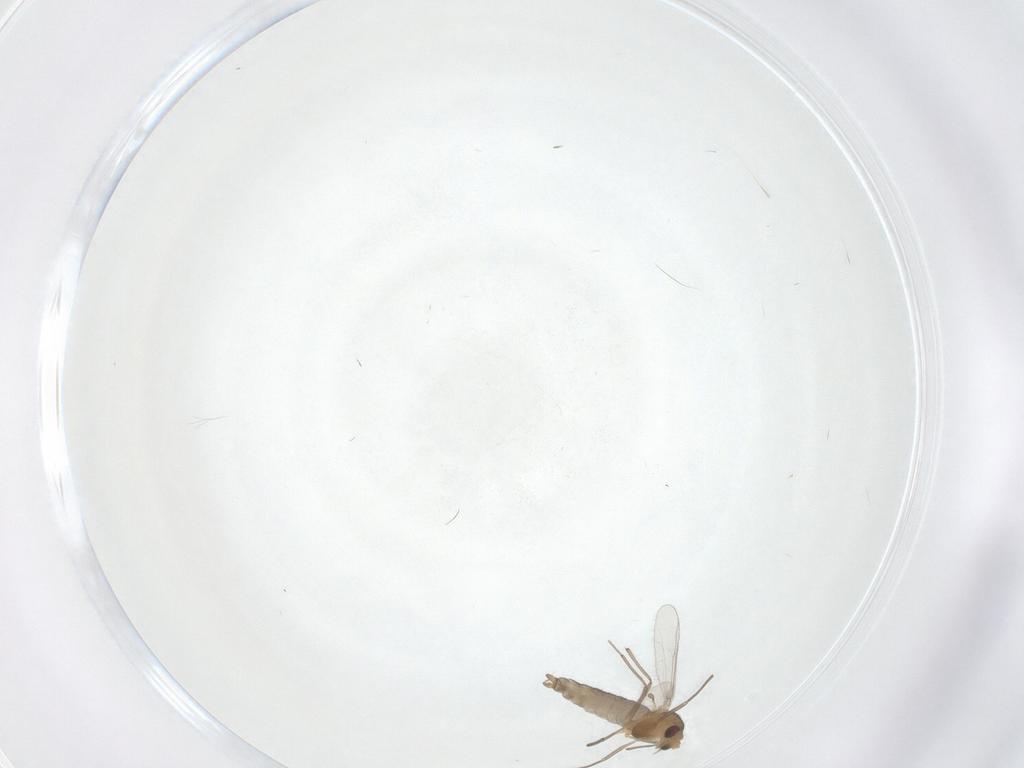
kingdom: Animalia
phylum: Arthropoda
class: Insecta
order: Diptera
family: Chironomidae
